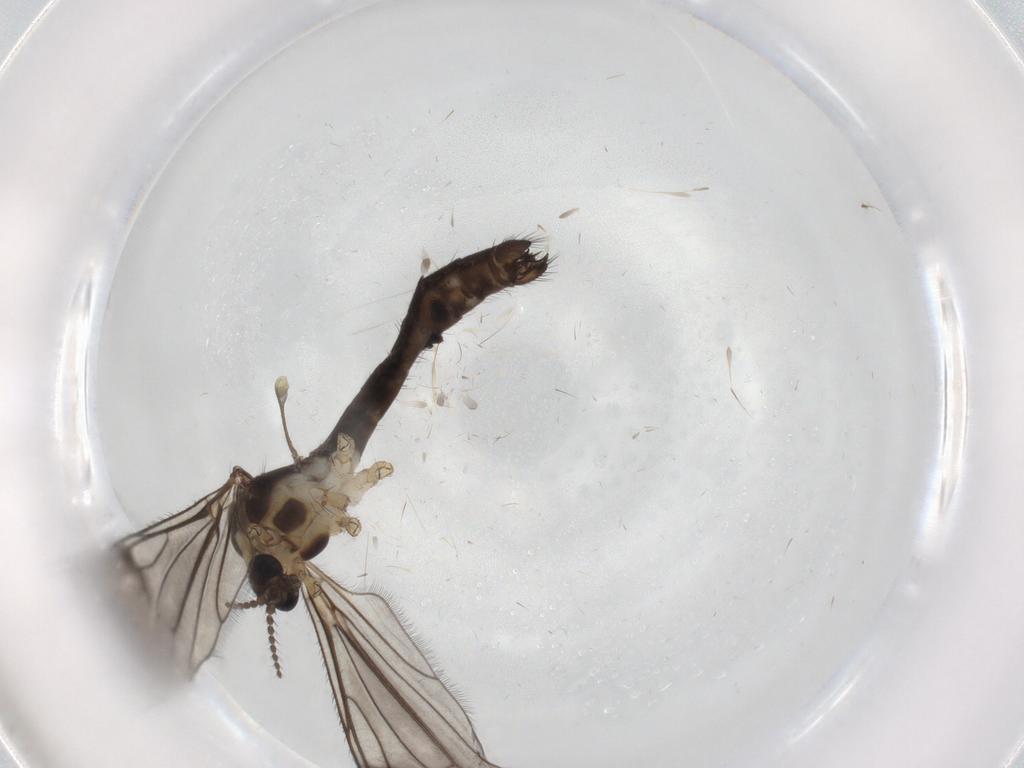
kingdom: Animalia
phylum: Arthropoda
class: Insecta
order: Diptera
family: Limoniidae
